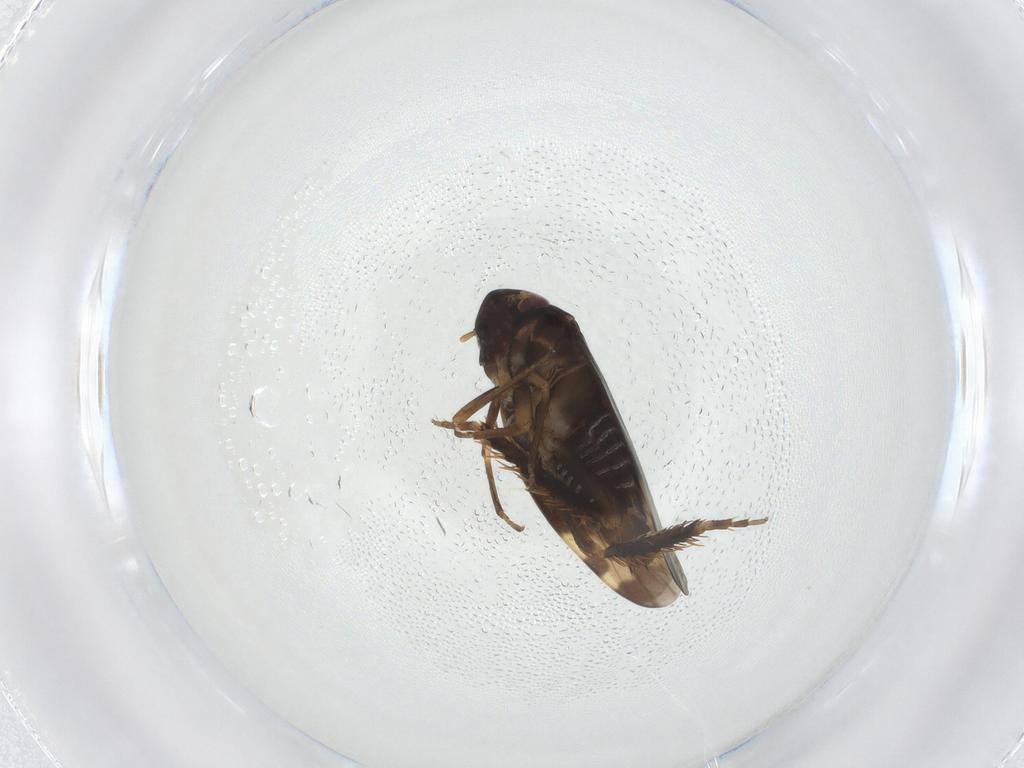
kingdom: Animalia
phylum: Arthropoda
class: Insecta
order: Hemiptera
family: Cicadellidae
